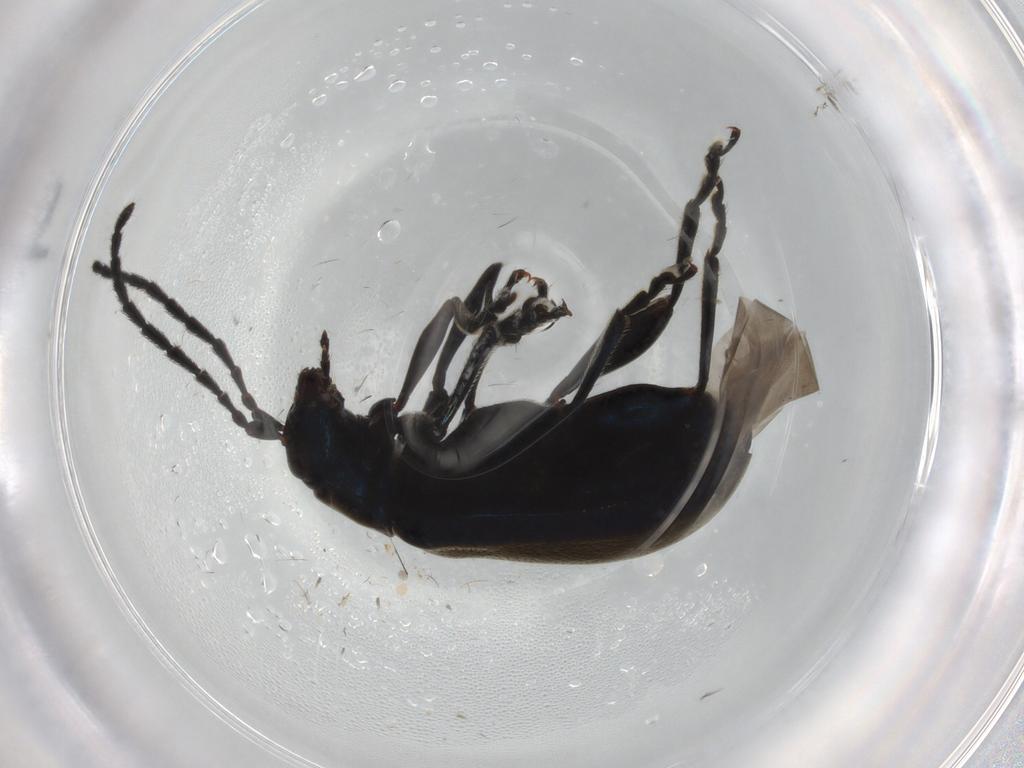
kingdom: Animalia
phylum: Arthropoda
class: Insecta
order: Coleoptera
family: Chrysomelidae
